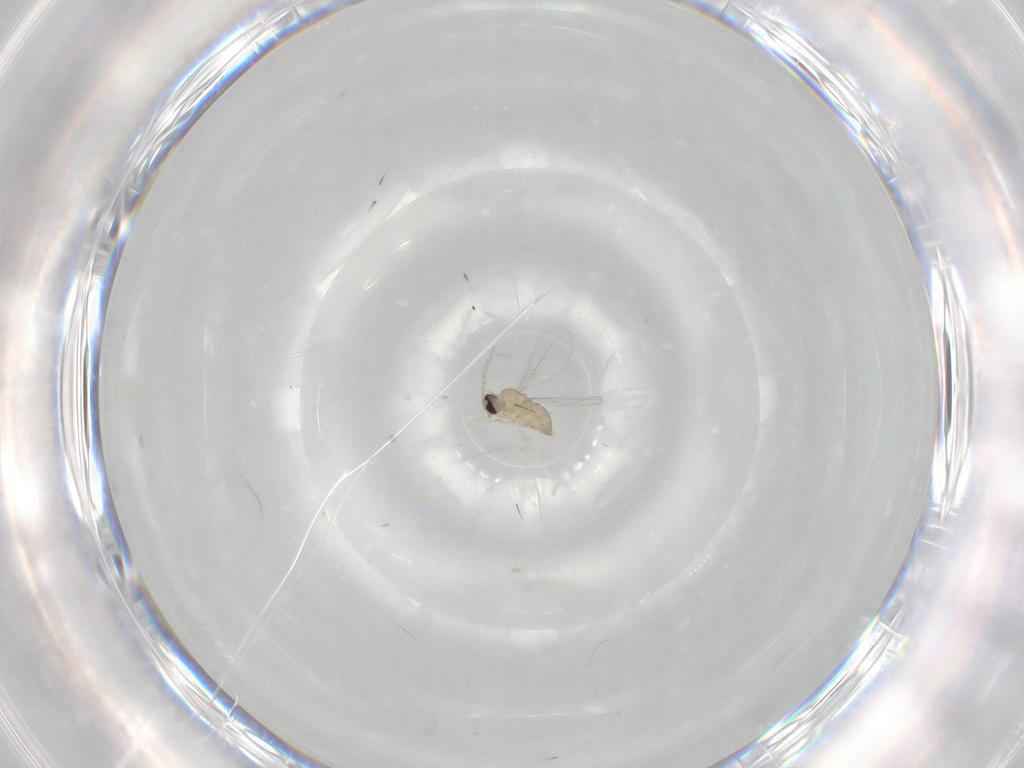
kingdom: Animalia
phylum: Arthropoda
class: Insecta
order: Diptera
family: Cecidomyiidae
